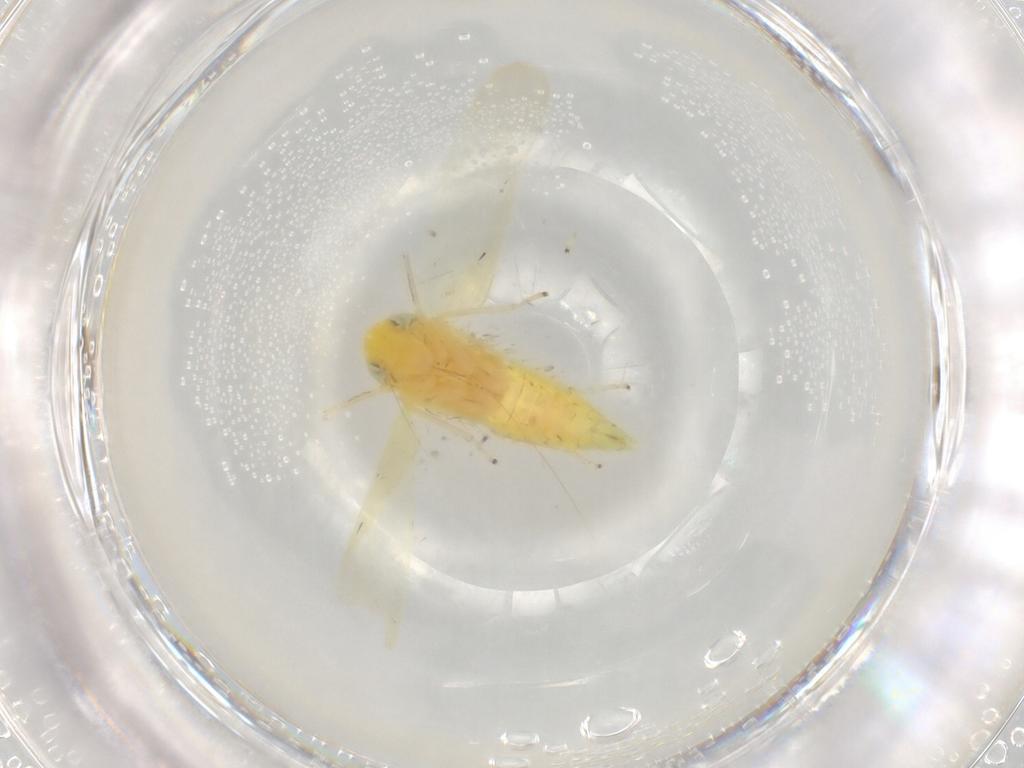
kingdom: Animalia
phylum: Arthropoda
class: Insecta
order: Hemiptera
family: Cicadellidae
